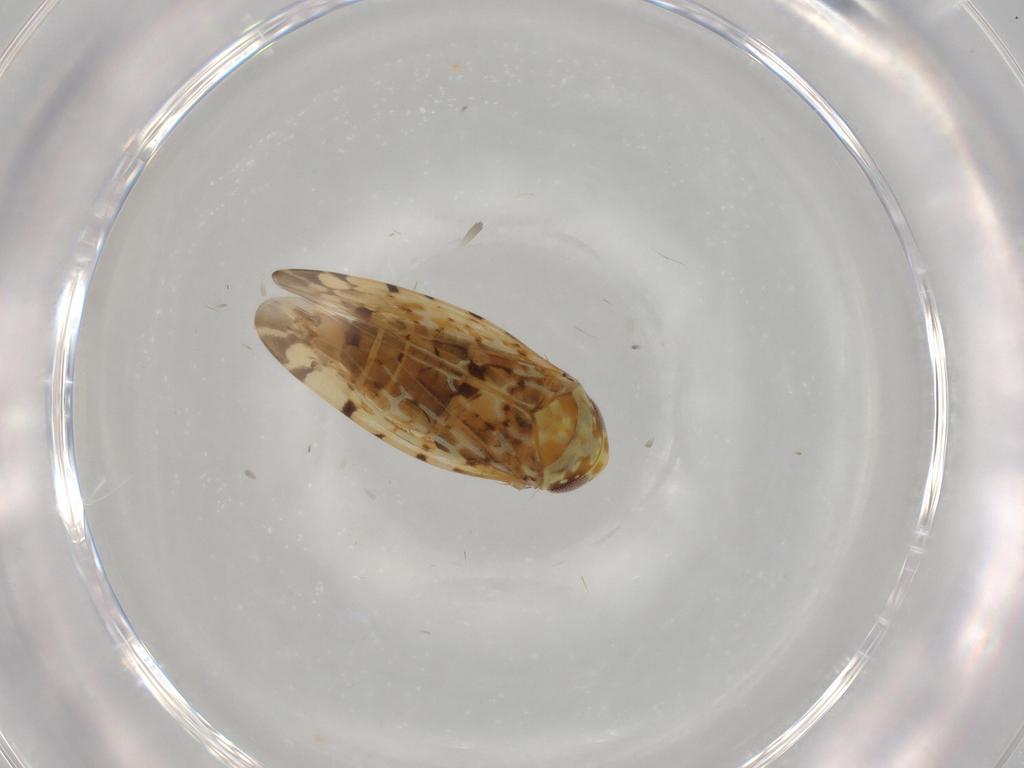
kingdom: Animalia
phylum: Arthropoda
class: Insecta
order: Hemiptera
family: Cicadellidae
